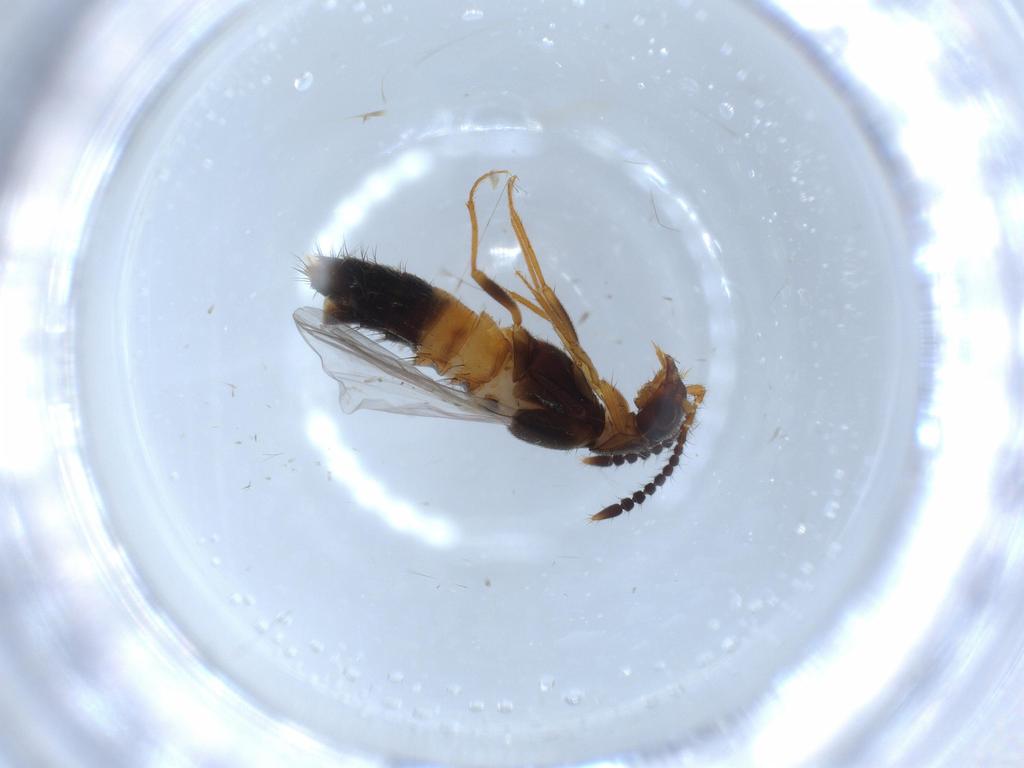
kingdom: Animalia
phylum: Arthropoda
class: Insecta
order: Coleoptera
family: Staphylinidae
